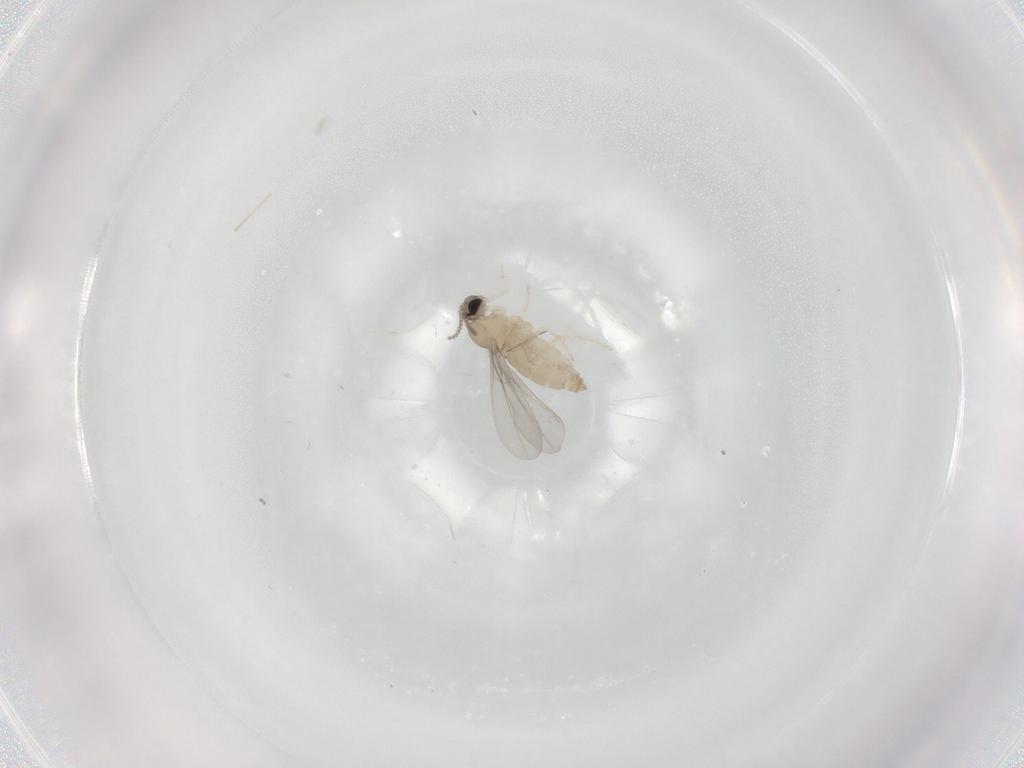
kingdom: Animalia
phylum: Arthropoda
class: Insecta
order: Diptera
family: Cecidomyiidae
